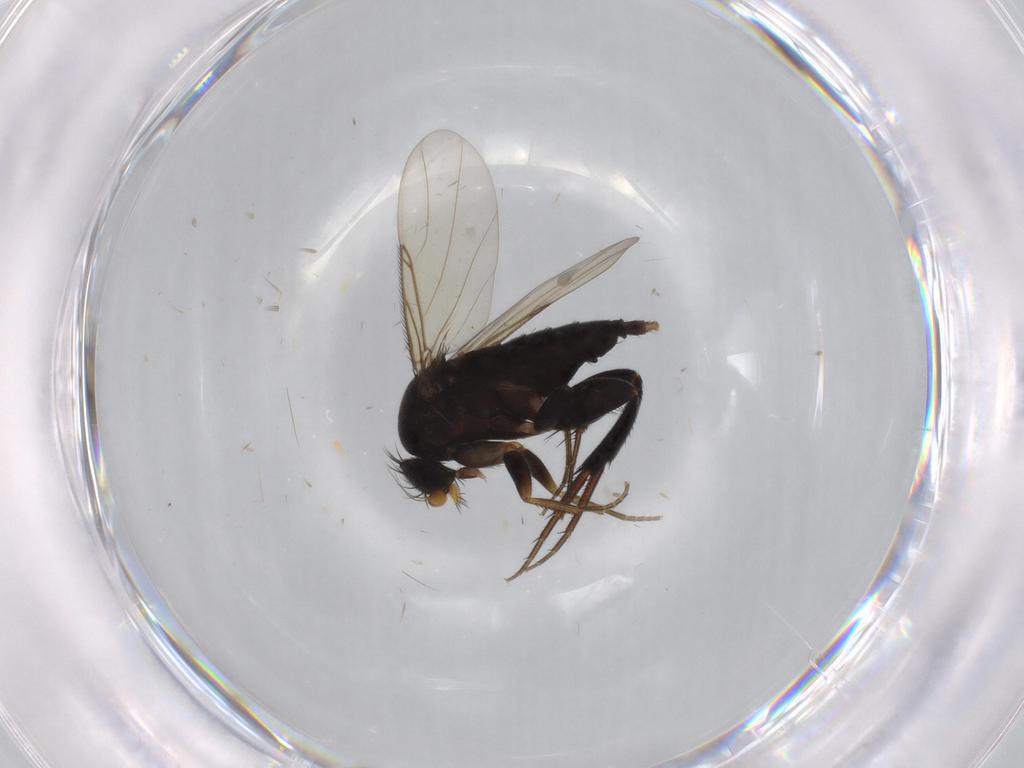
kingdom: Animalia
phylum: Arthropoda
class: Insecta
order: Diptera
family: Phoridae
